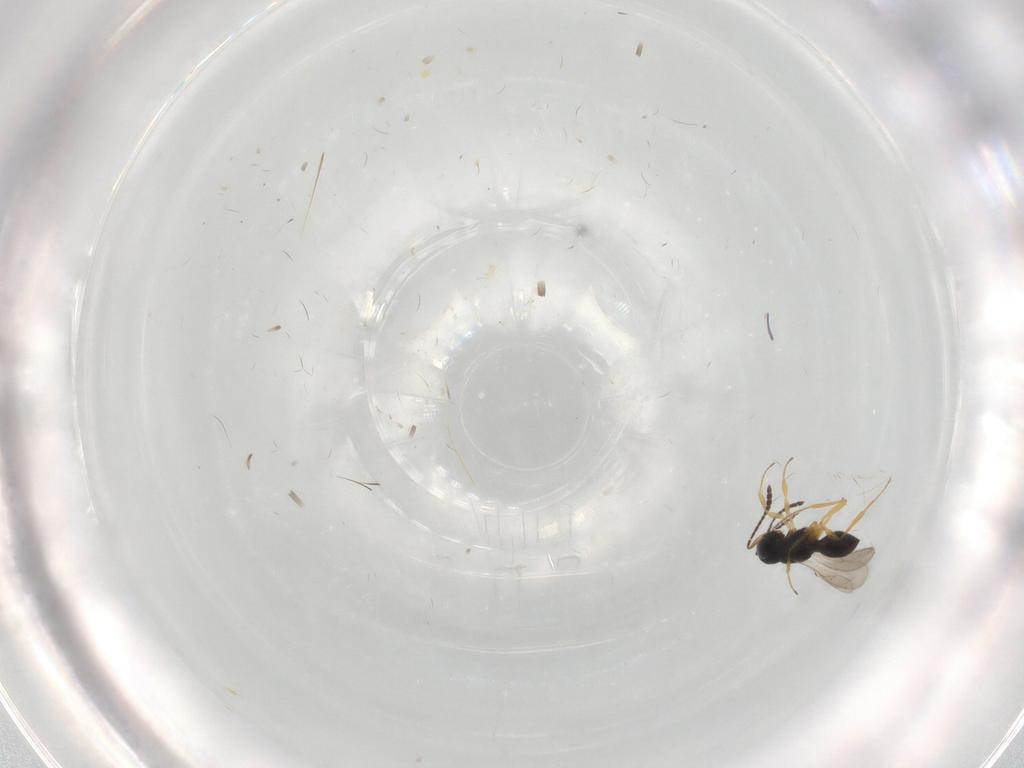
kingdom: Animalia
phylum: Arthropoda
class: Insecta
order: Hymenoptera
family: Scelionidae
